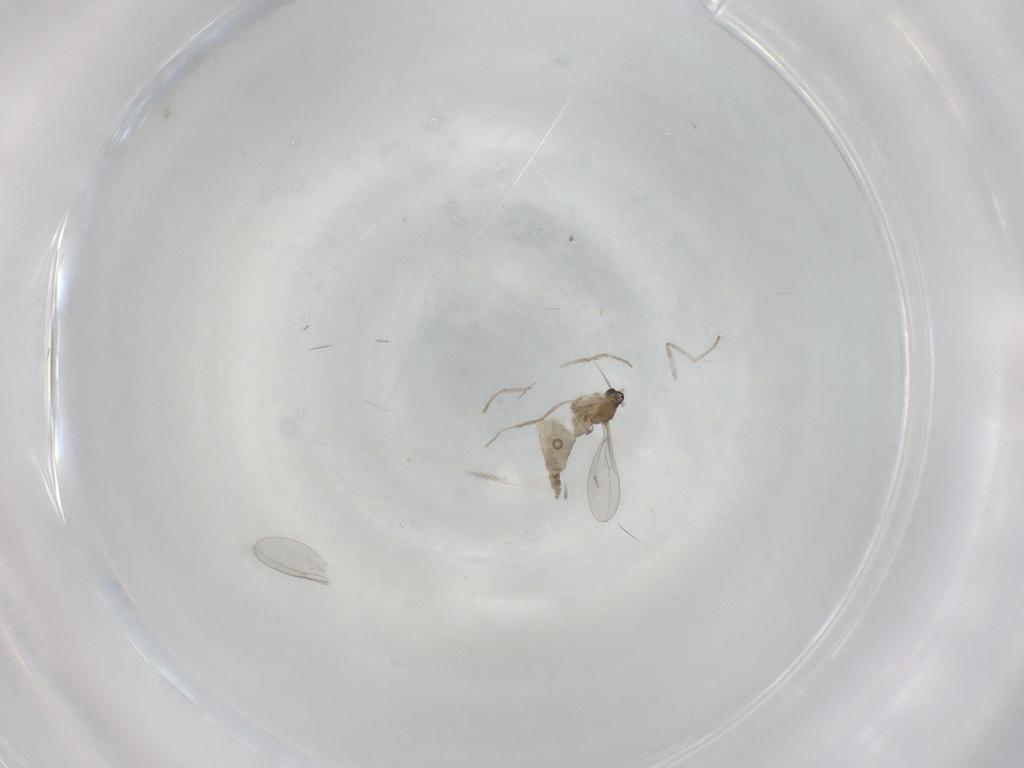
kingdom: Animalia
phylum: Arthropoda
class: Insecta
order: Diptera
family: Cecidomyiidae
